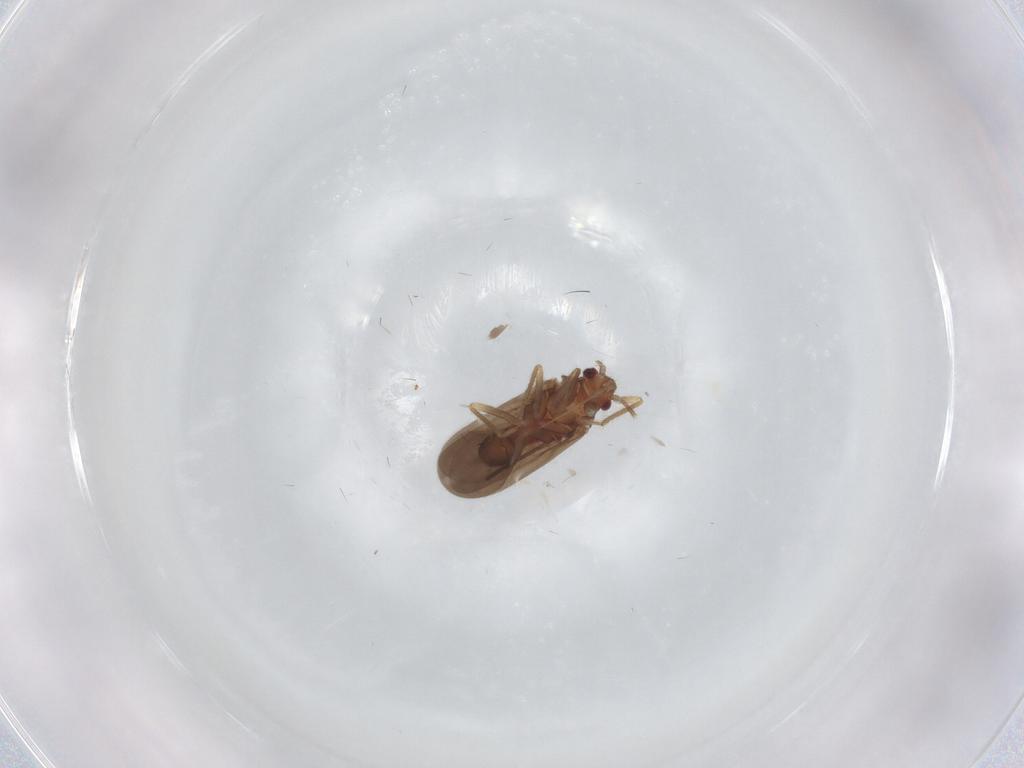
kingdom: Animalia
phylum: Arthropoda
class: Insecta
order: Hemiptera
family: Ceratocombidae
